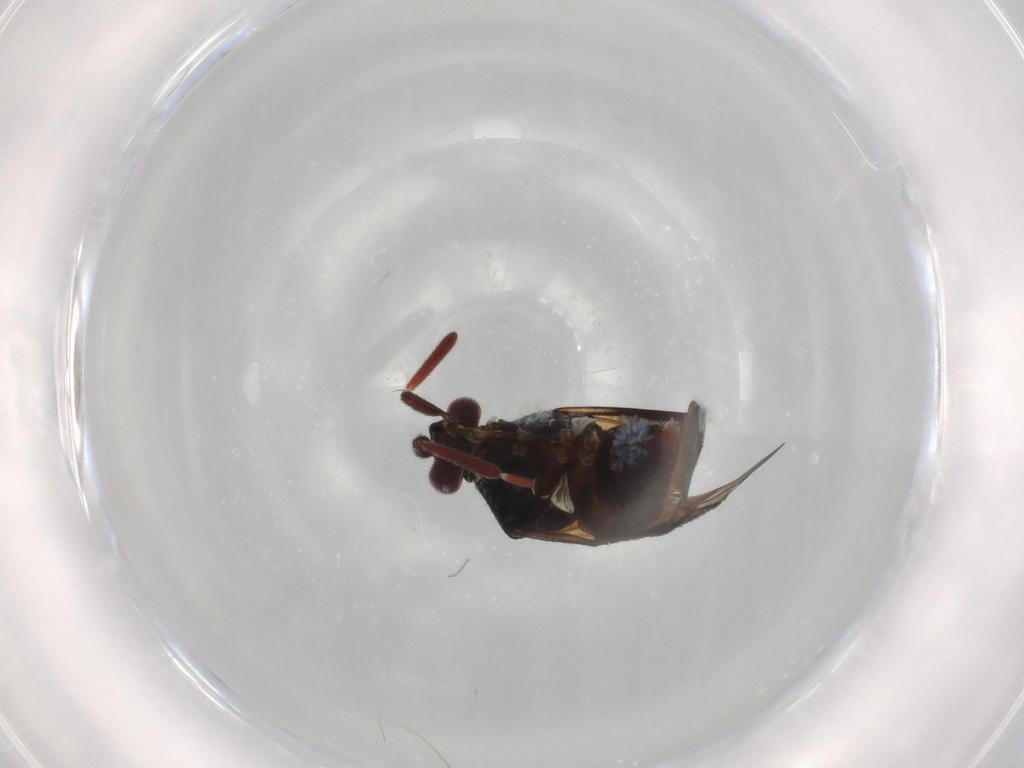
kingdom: Animalia
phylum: Arthropoda
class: Insecta
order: Hemiptera
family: Miridae
